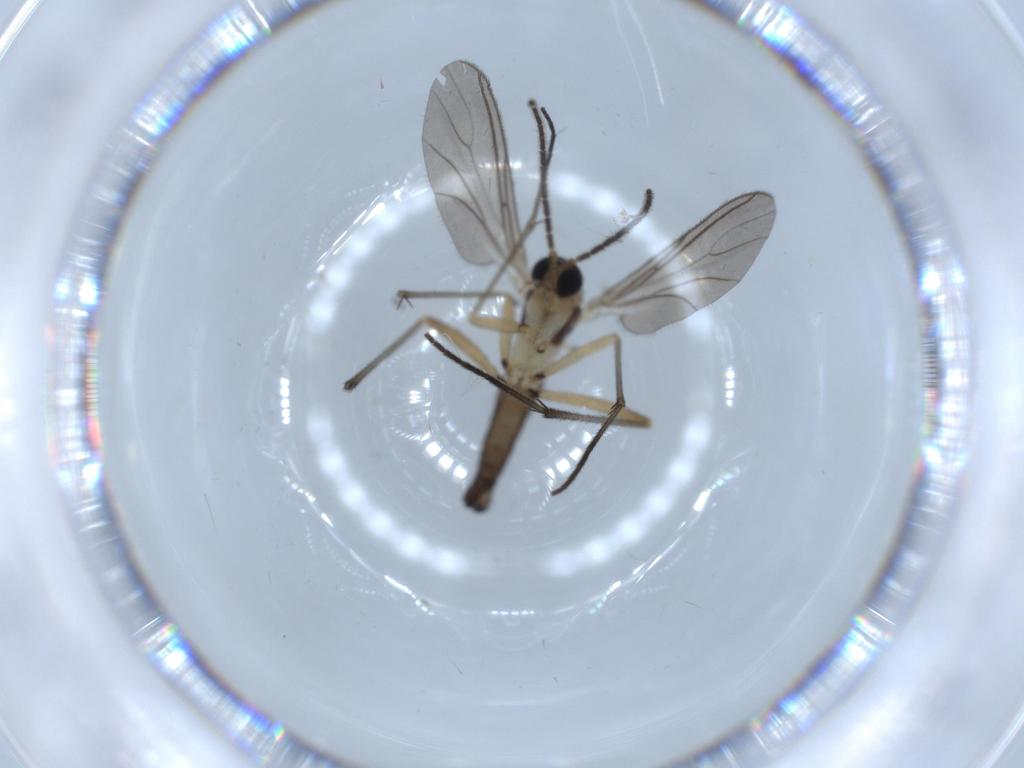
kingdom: Animalia
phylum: Arthropoda
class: Insecta
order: Diptera
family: Sciaridae
